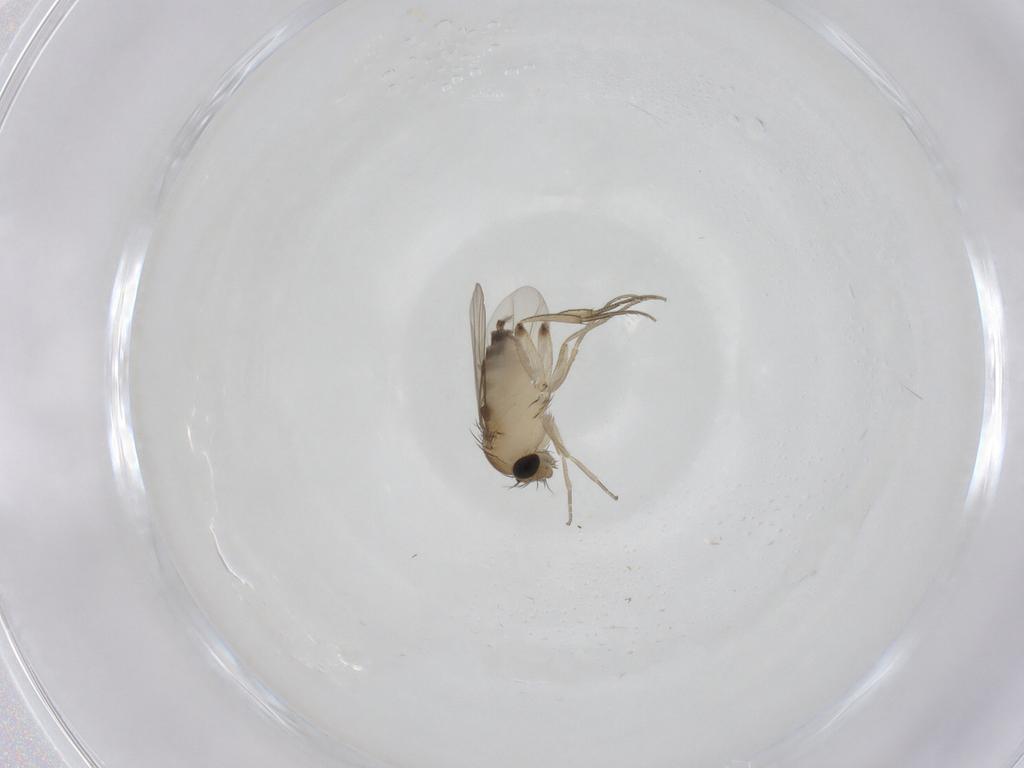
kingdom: Animalia
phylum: Arthropoda
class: Insecta
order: Diptera
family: Phoridae
